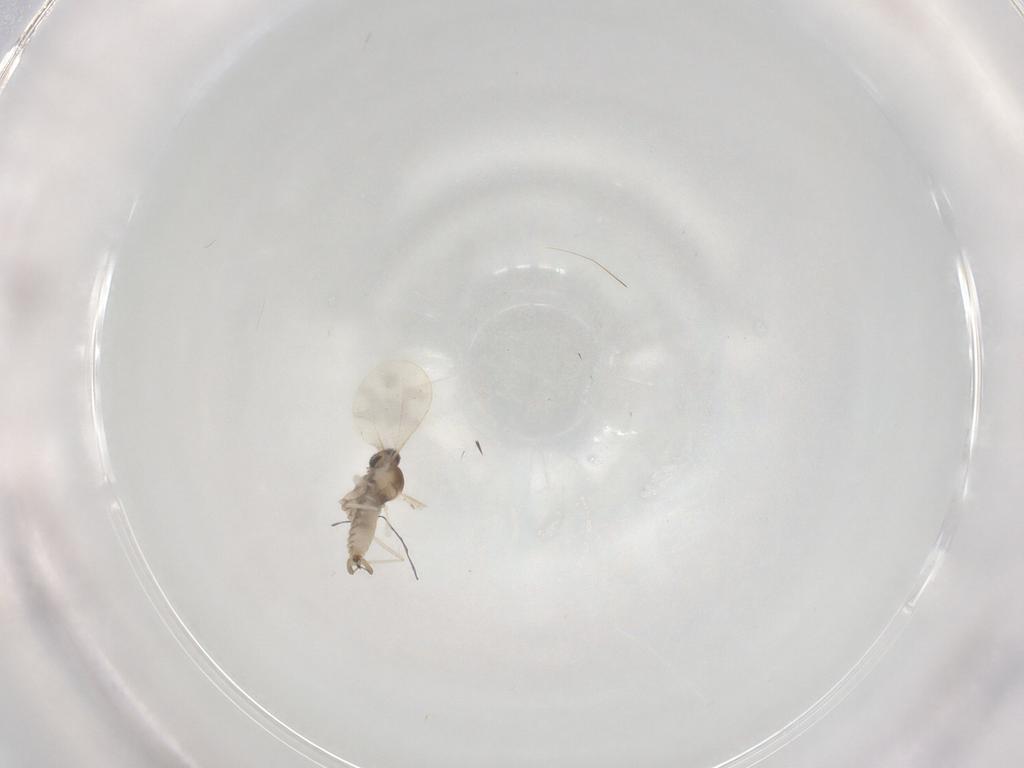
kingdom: Animalia
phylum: Arthropoda
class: Insecta
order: Diptera
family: Cecidomyiidae
